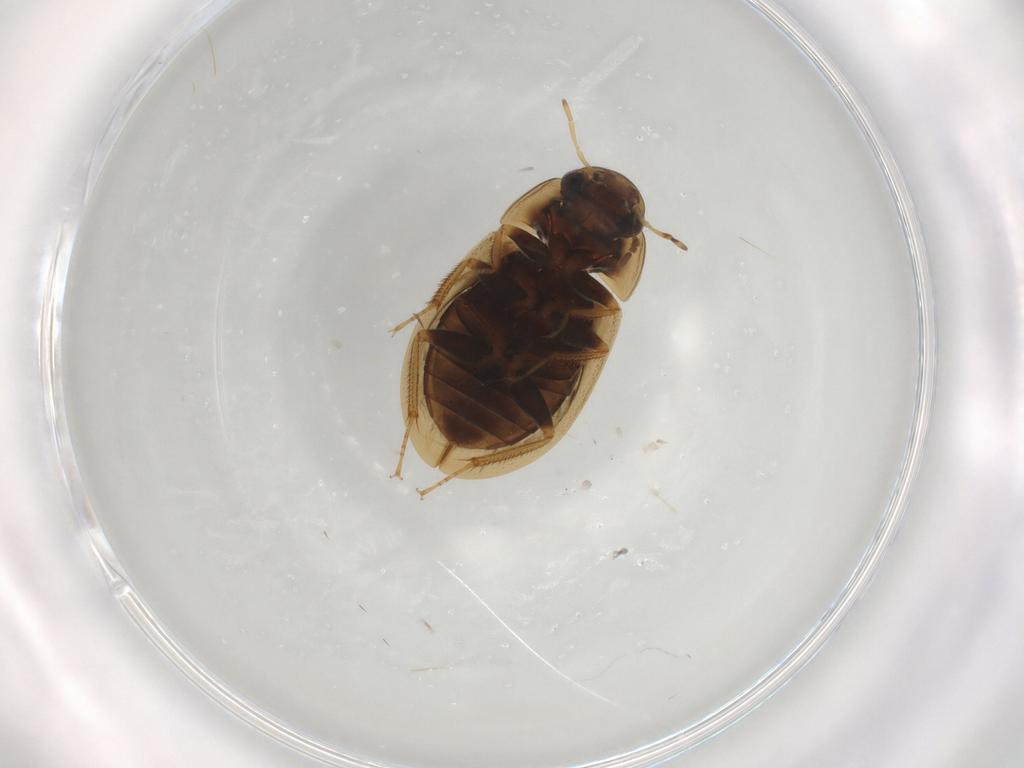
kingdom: Animalia
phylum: Arthropoda
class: Insecta
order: Coleoptera
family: Hydrophilidae
